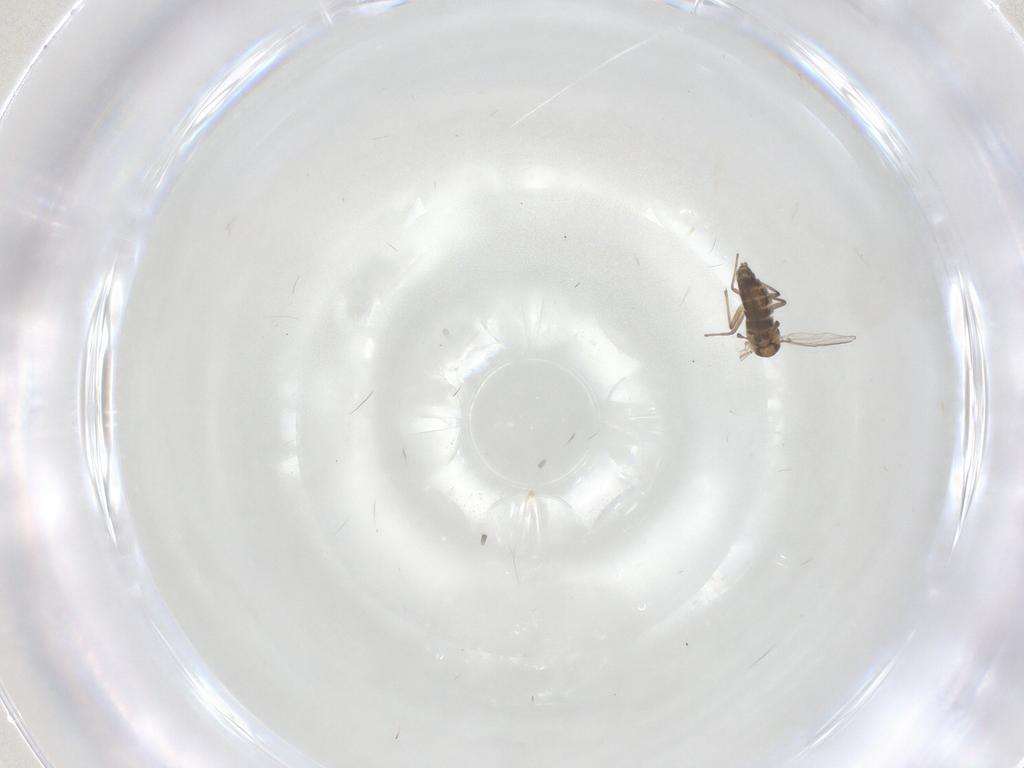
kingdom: Animalia
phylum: Arthropoda
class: Insecta
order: Diptera
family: Chironomidae
